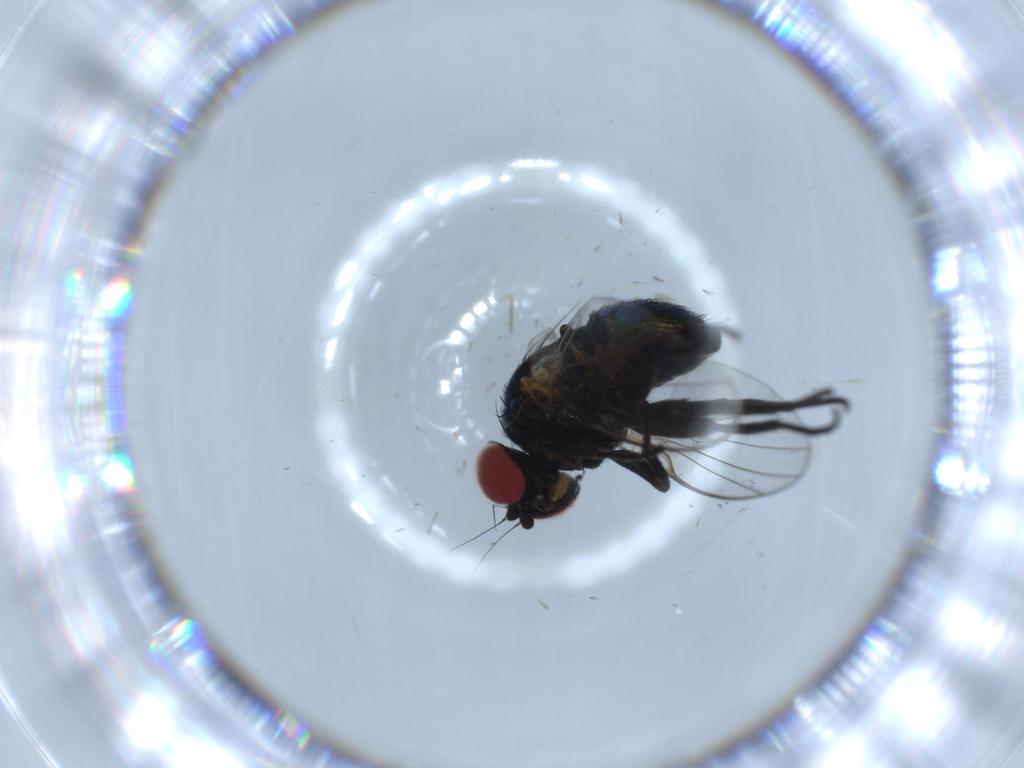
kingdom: Animalia
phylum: Arthropoda
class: Insecta
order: Diptera
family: Agromyzidae
